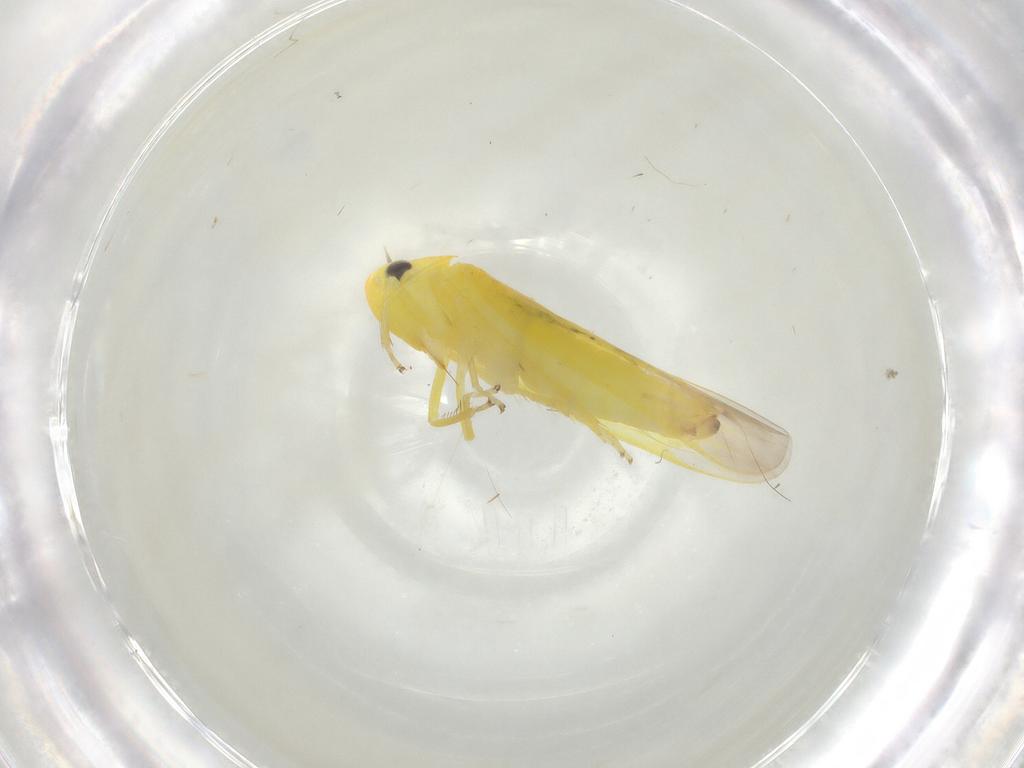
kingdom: Animalia
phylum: Arthropoda
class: Insecta
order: Hemiptera
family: Cicadellidae
